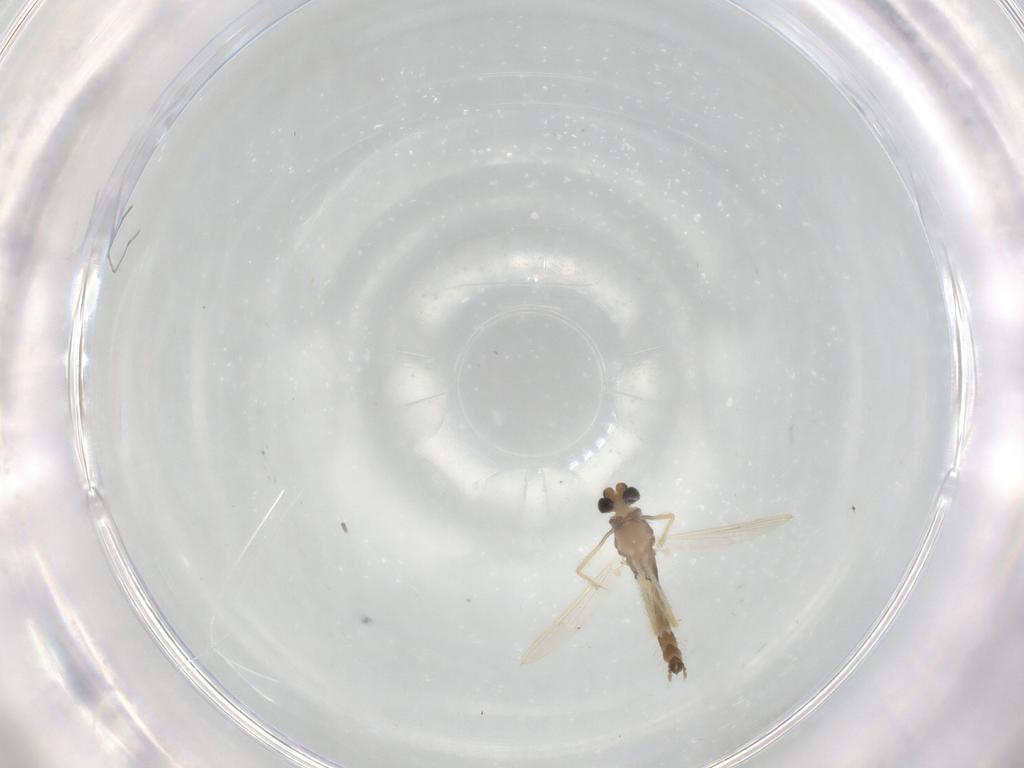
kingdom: Animalia
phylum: Arthropoda
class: Insecta
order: Diptera
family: Chironomidae
